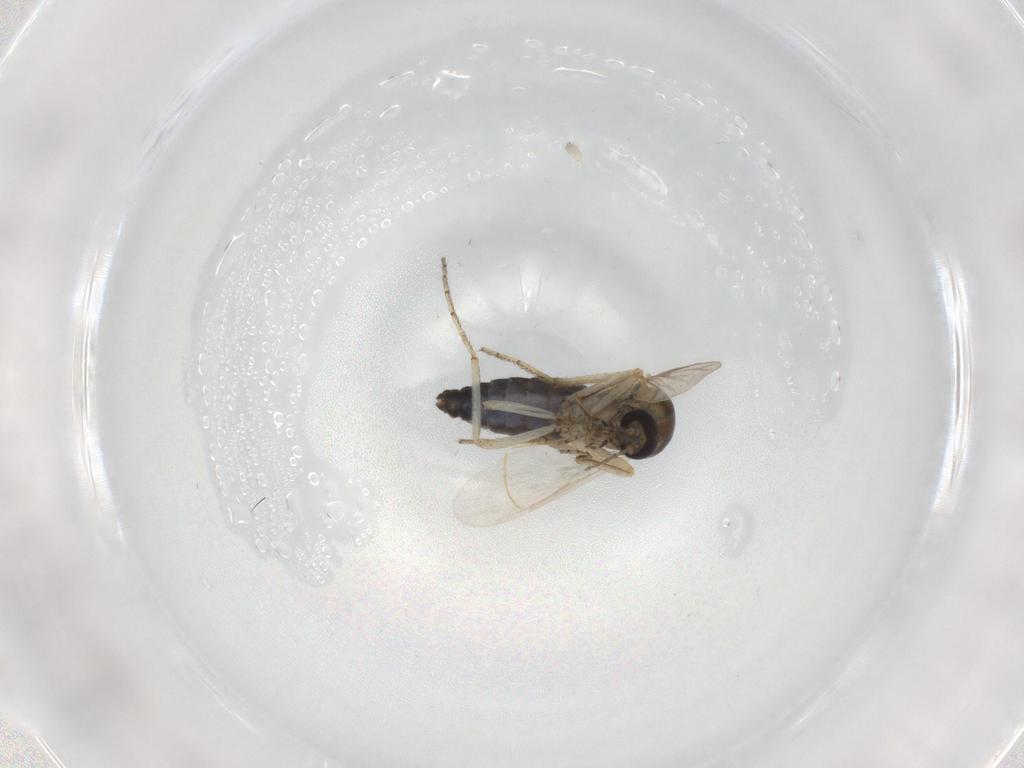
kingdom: Animalia
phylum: Arthropoda
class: Insecta
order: Diptera
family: Ceratopogonidae
